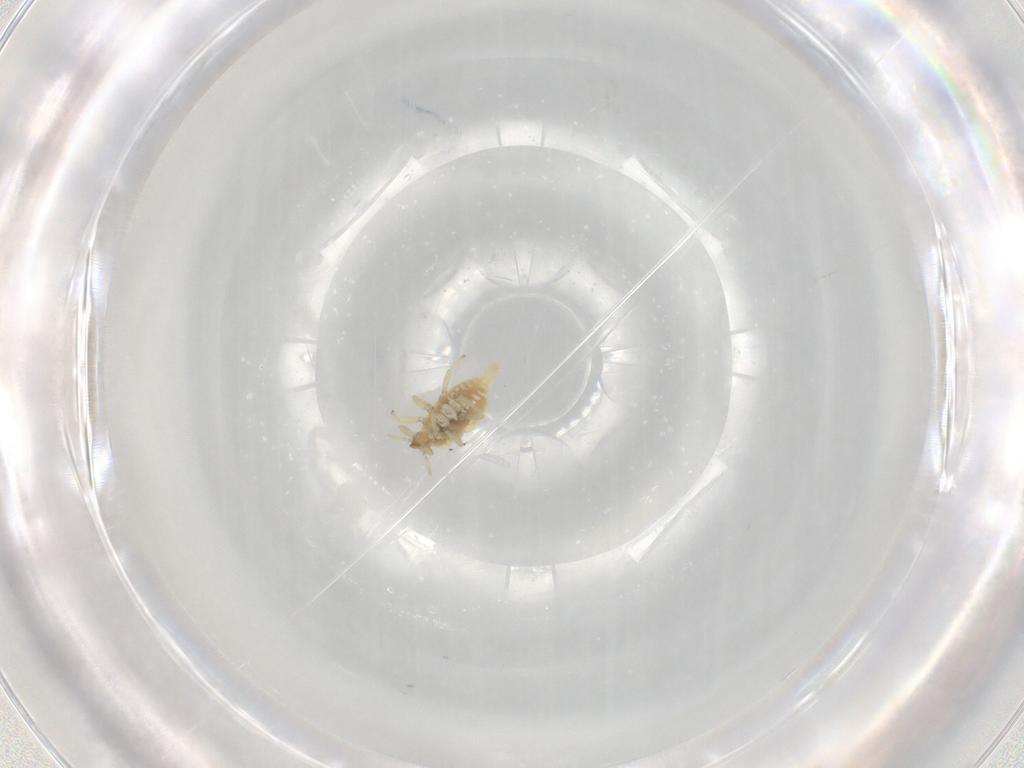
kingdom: Animalia
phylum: Arthropoda
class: Insecta
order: Neuroptera
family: Coniopterygidae
